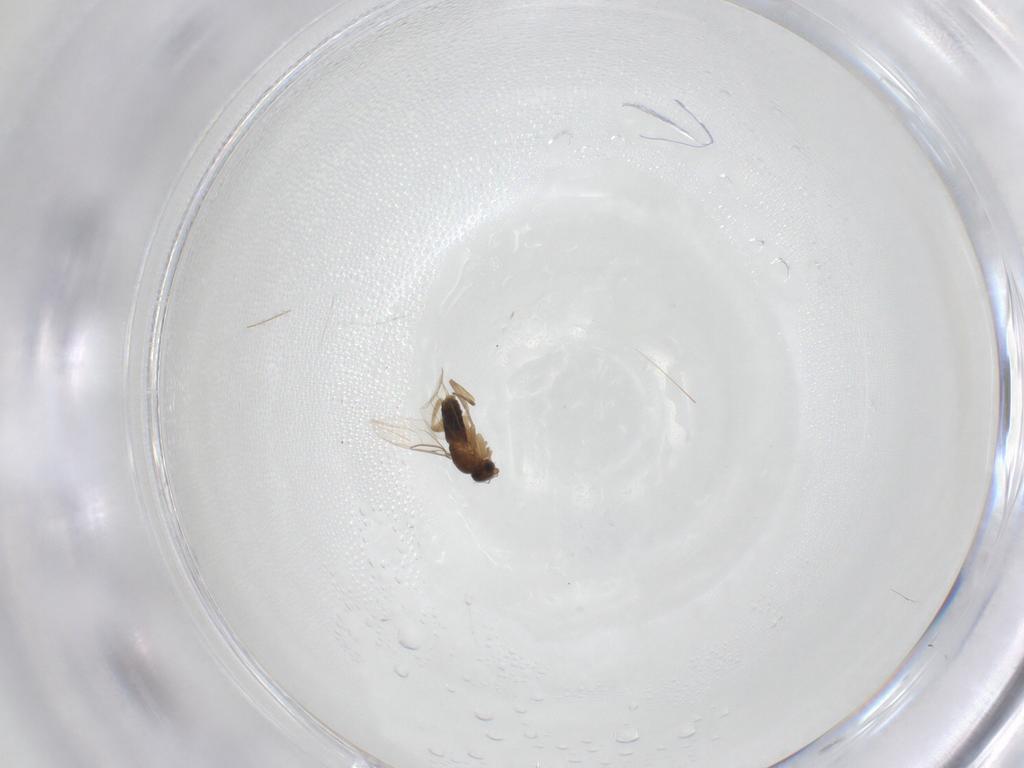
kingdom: Animalia
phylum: Arthropoda
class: Insecta
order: Diptera
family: Phoridae
